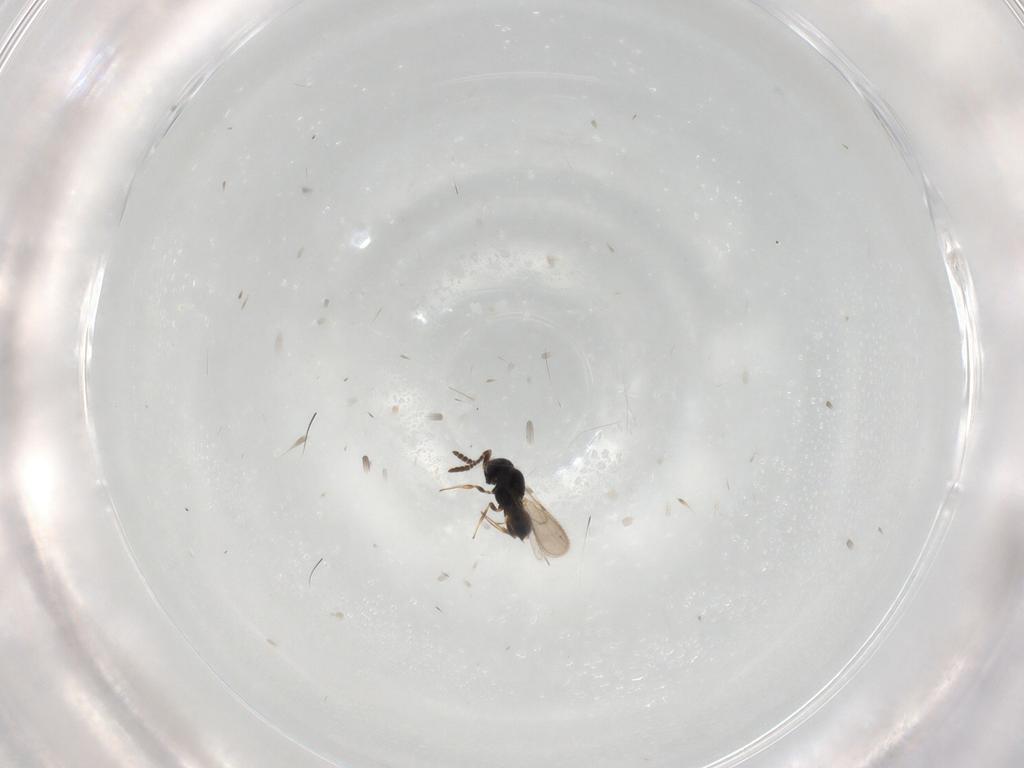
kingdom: Animalia
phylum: Arthropoda
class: Insecta
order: Hymenoptera
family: Scelionidae
